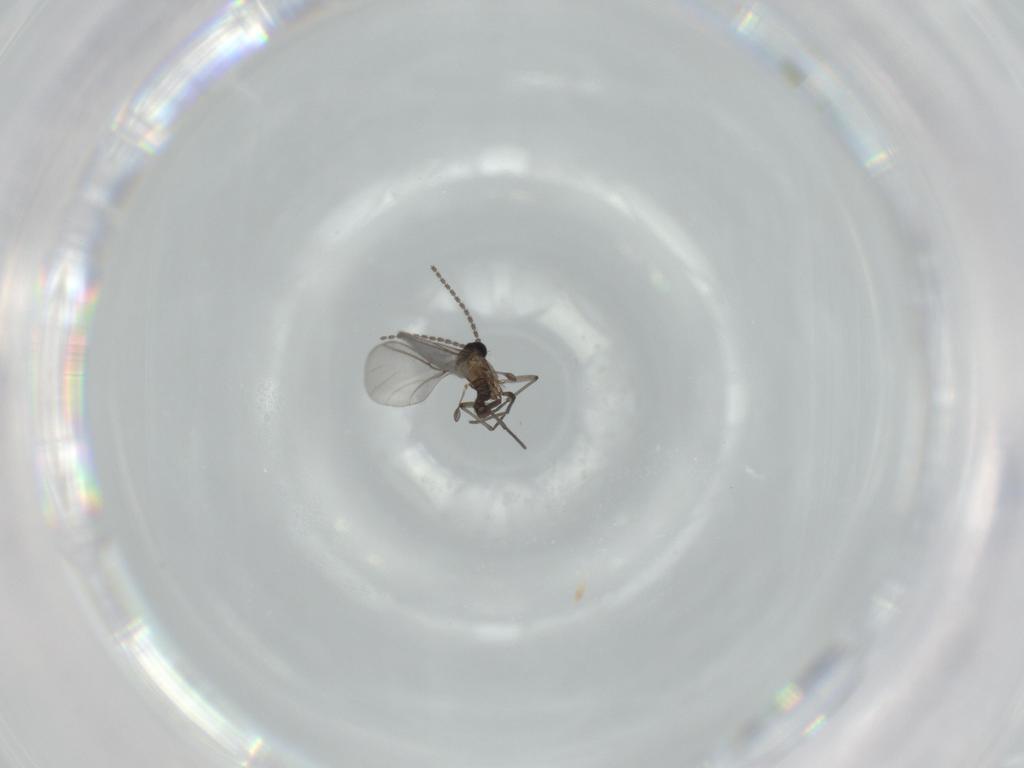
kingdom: Animalia
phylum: Arthropoda
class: Insecta
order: Diptera
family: Sciaridae
